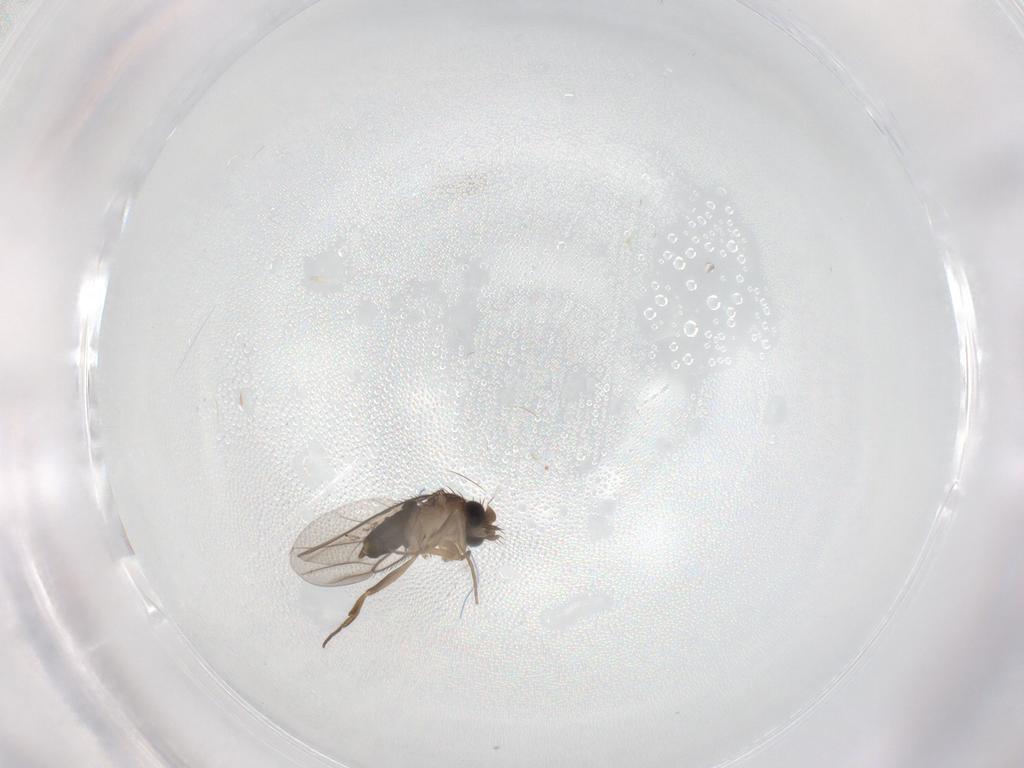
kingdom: Animalia
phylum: Arthropoda
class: Insecta
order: Diptera
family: Phoridae
